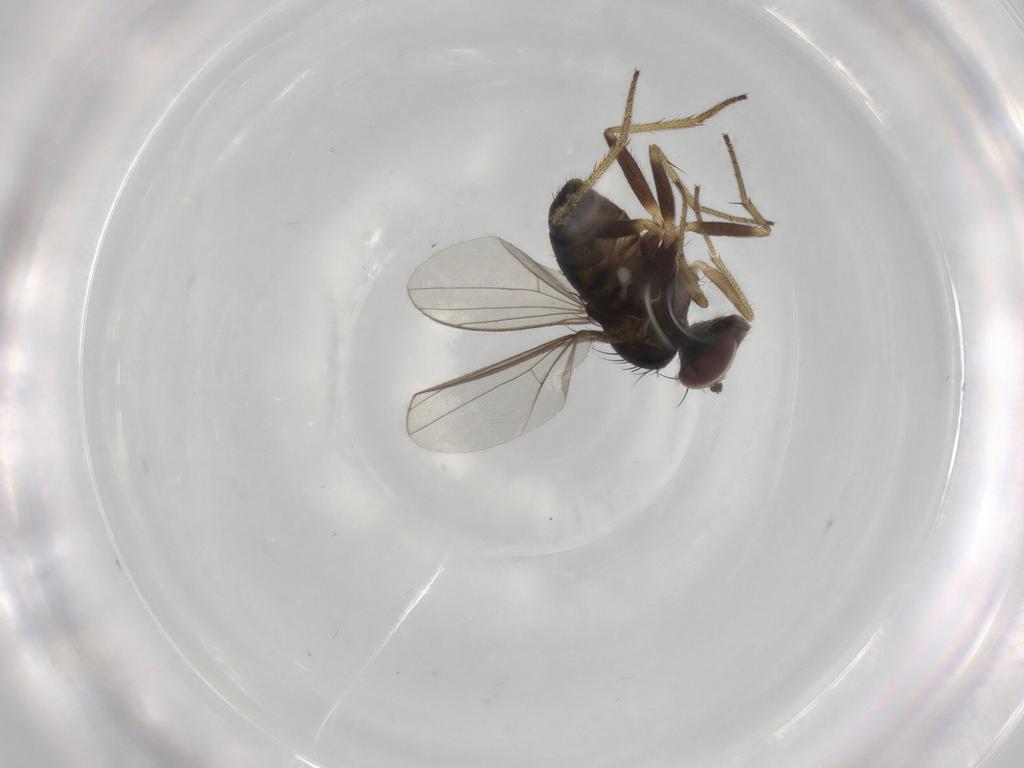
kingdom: Animalia
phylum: Arthropoda
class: Insecta
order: Diptera
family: Dolichopodidae
